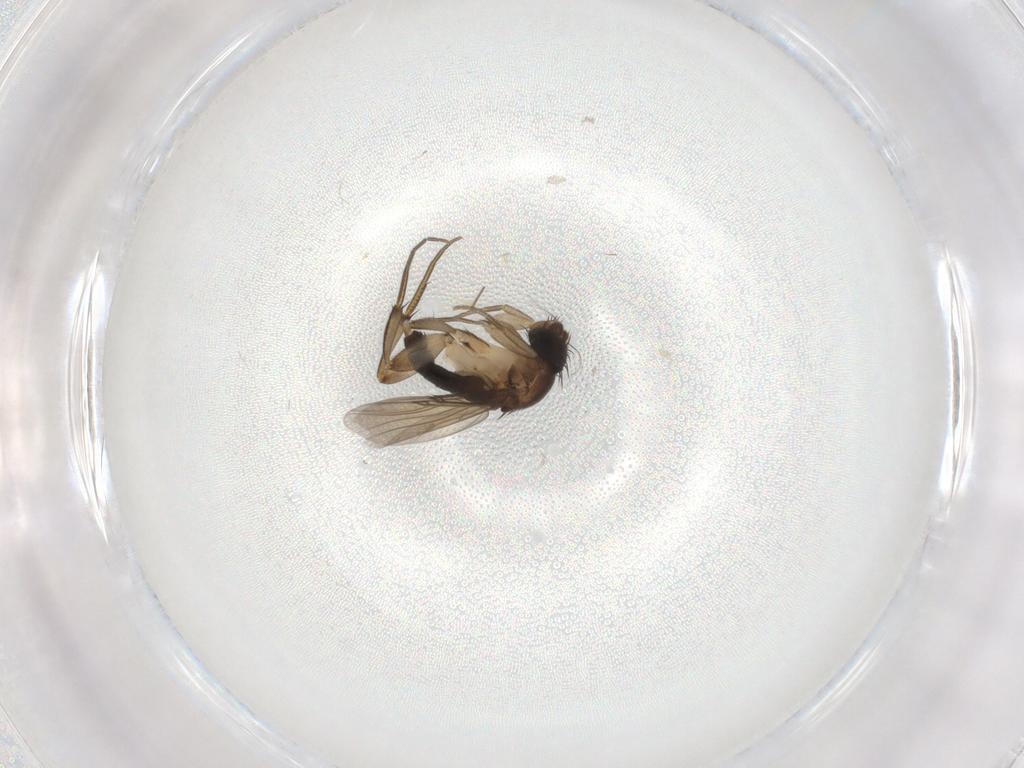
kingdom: Animalia
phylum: Arthropoda
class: Insecta
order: Diptera
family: Phoridae
